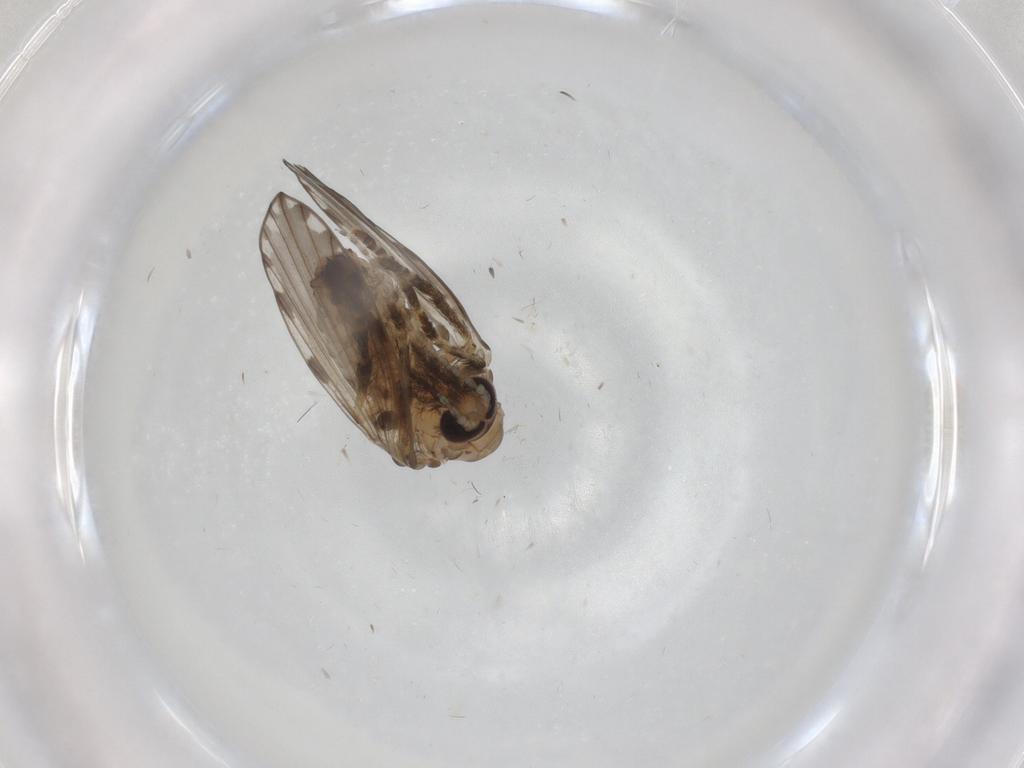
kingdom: Animalia
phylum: Arthropoda
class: Insecta
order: Diptera
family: Psychodidae
